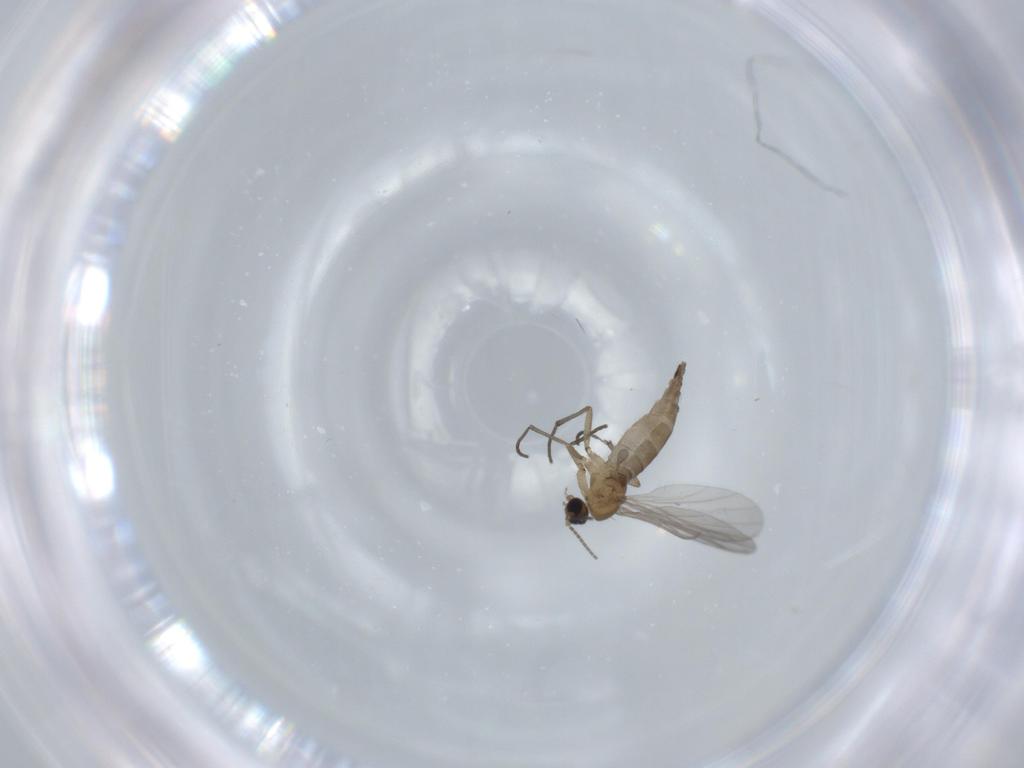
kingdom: Animalia
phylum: Arthropoda
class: Insecta
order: Diptera
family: Sciaridae
